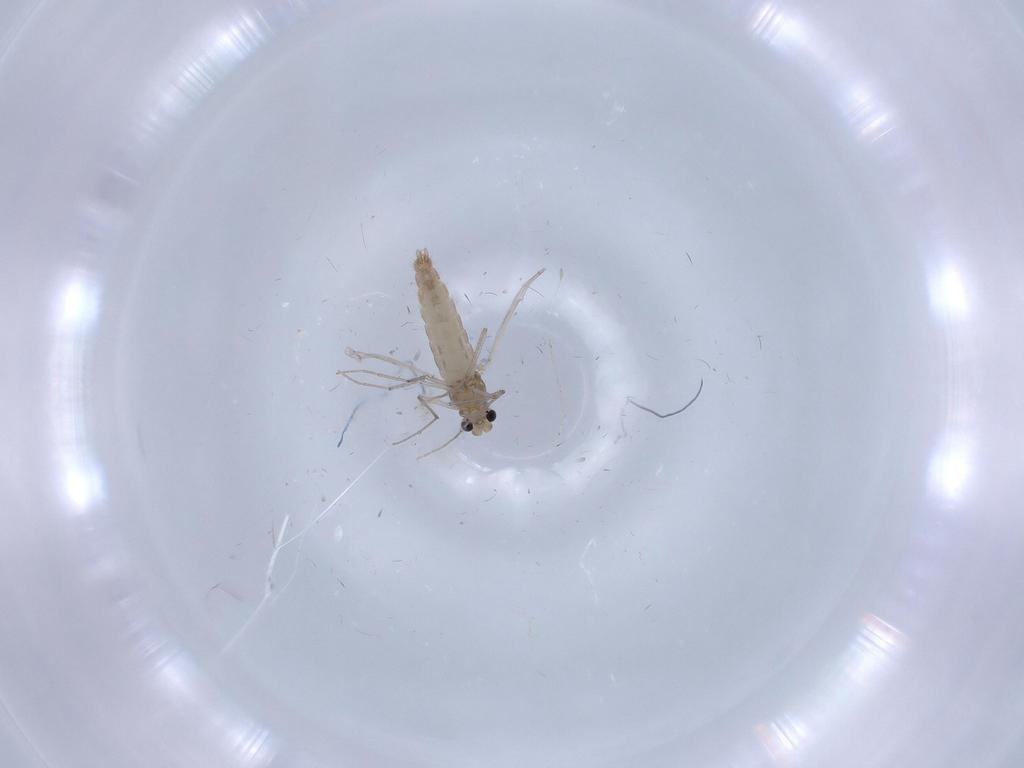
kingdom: Animalia
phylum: Arthropoda
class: Insecta
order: Diptera
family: Chironomidae
